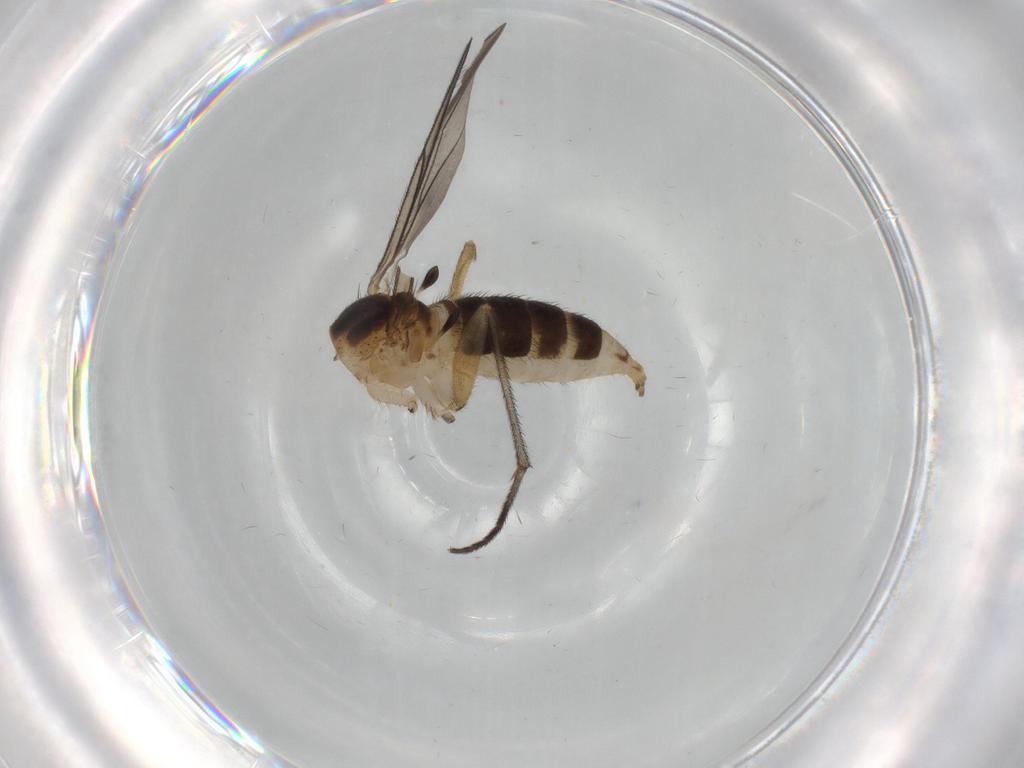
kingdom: Animalia
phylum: Arthropoda
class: Insecta
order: Diptera
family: Sciaridae
